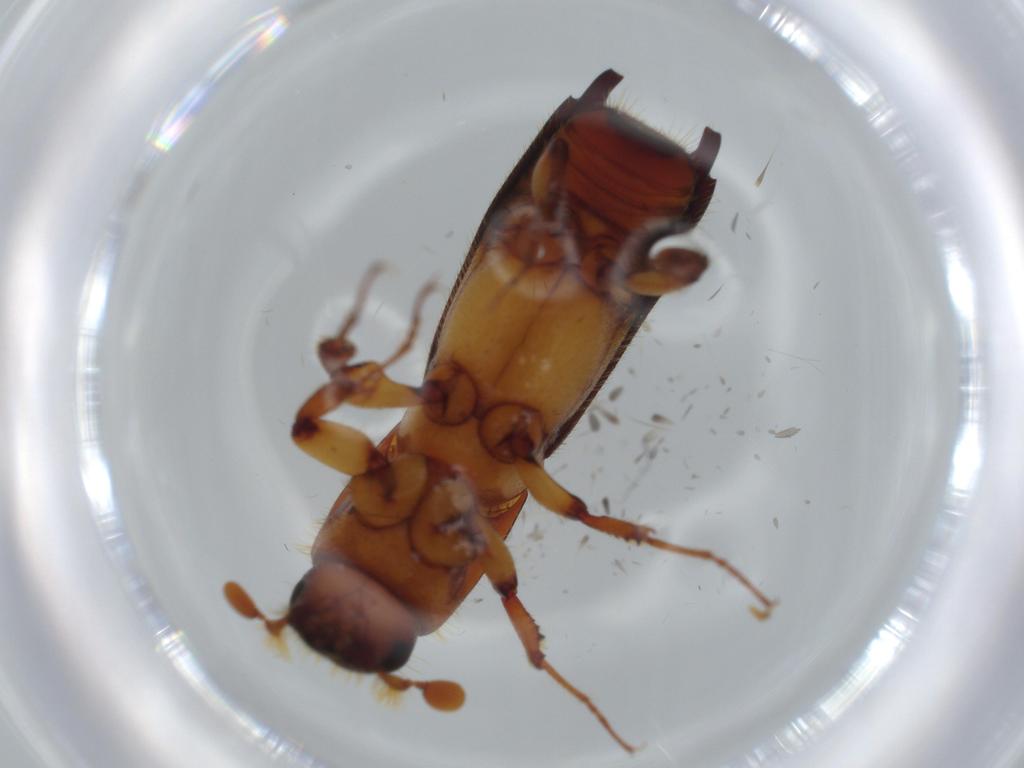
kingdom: Animalia
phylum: Arthropoda
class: Insecta
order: Coleoptera
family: Curculionidae
